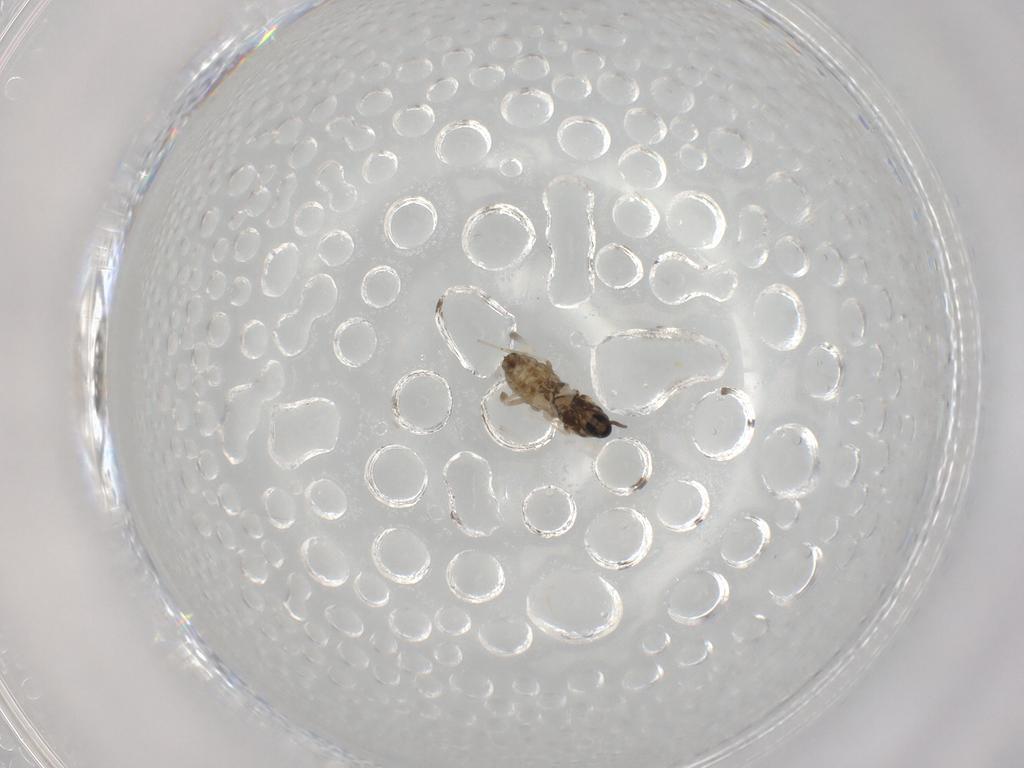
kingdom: Animalia
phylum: Arthropoda
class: Insecta
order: Diptera
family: Cecidomyiidae
